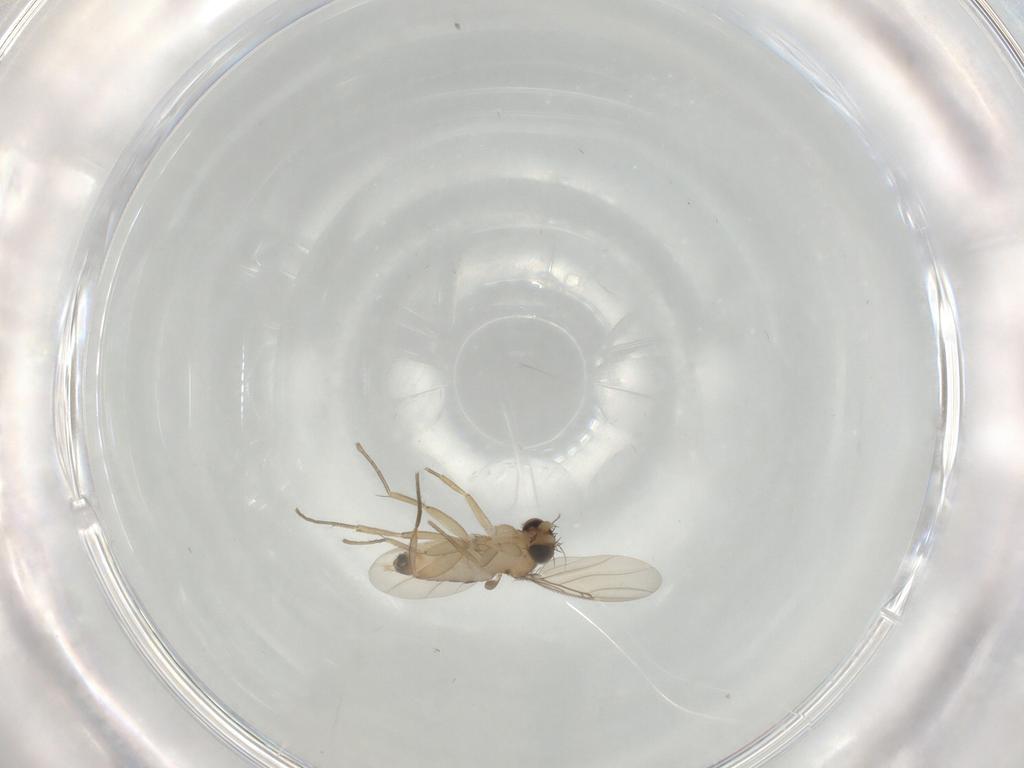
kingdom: Animalia
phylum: Arthropoda
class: Insecta
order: Diptera
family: Phoridae
